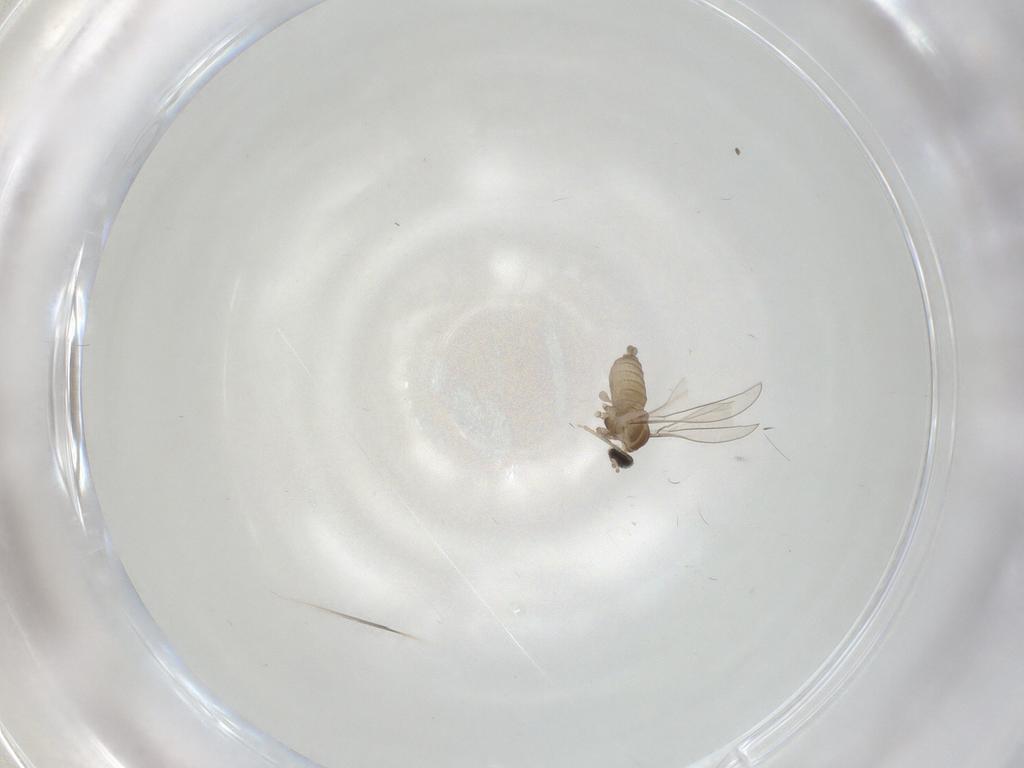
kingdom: Animalia
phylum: Arthropoda
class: Insecta
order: Diptera
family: Cecidomyiidae
